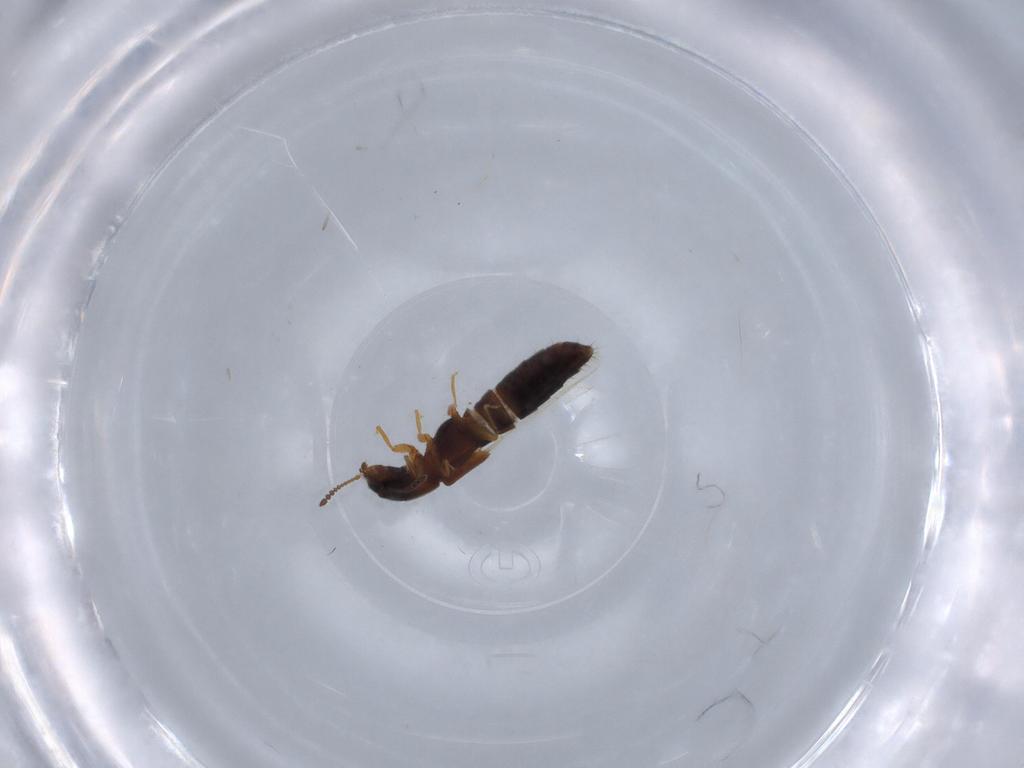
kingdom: Animalia
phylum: Arthropoda
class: Insecta
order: Coleoptera
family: Staphylinidae
